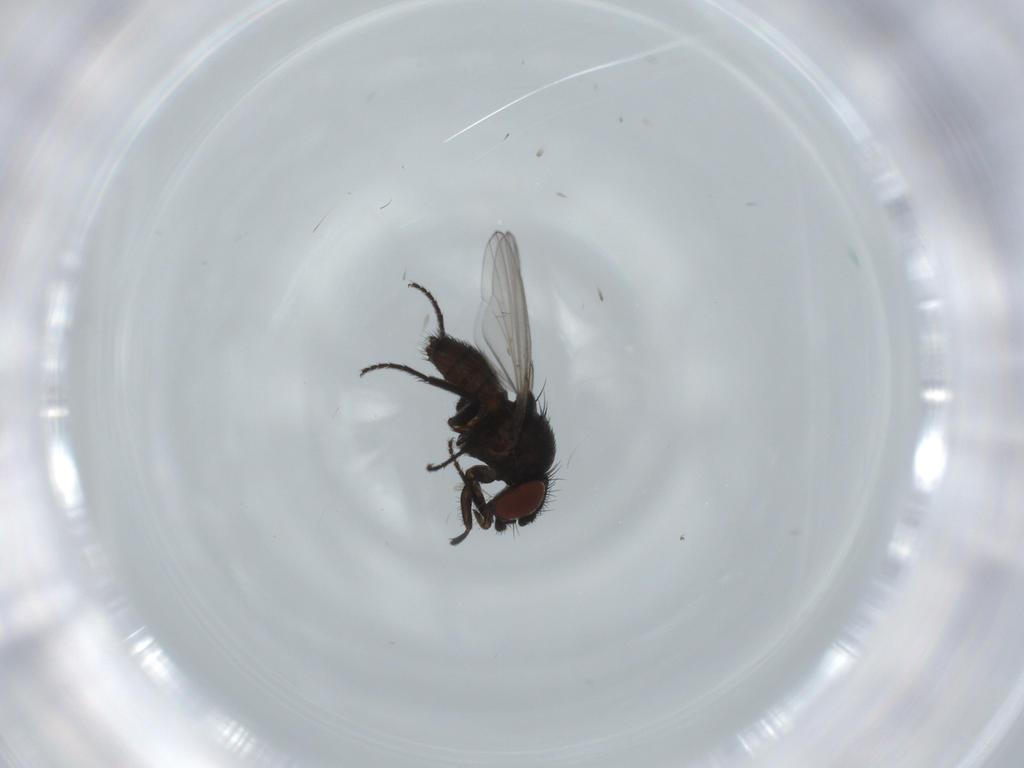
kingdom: Animalia
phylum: Arthropoda
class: Insecta
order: Diptera
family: Milichiidae
